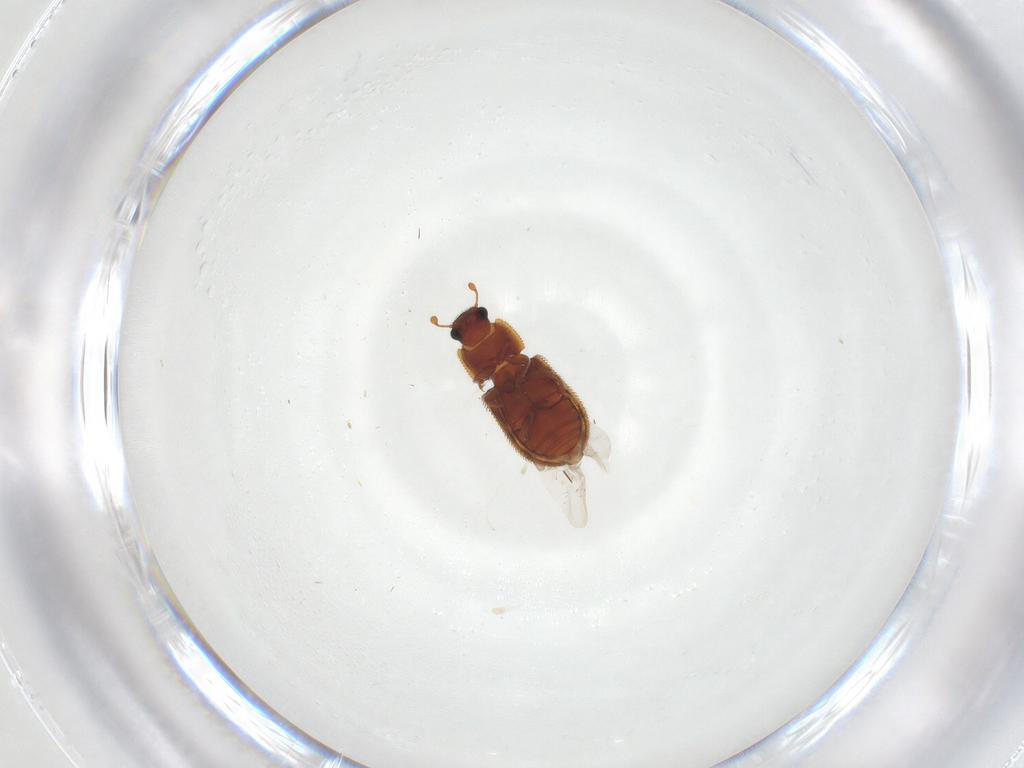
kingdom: Animalia
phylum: Arthropoda
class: Insecta
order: Coleoptera
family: Zopheridae
